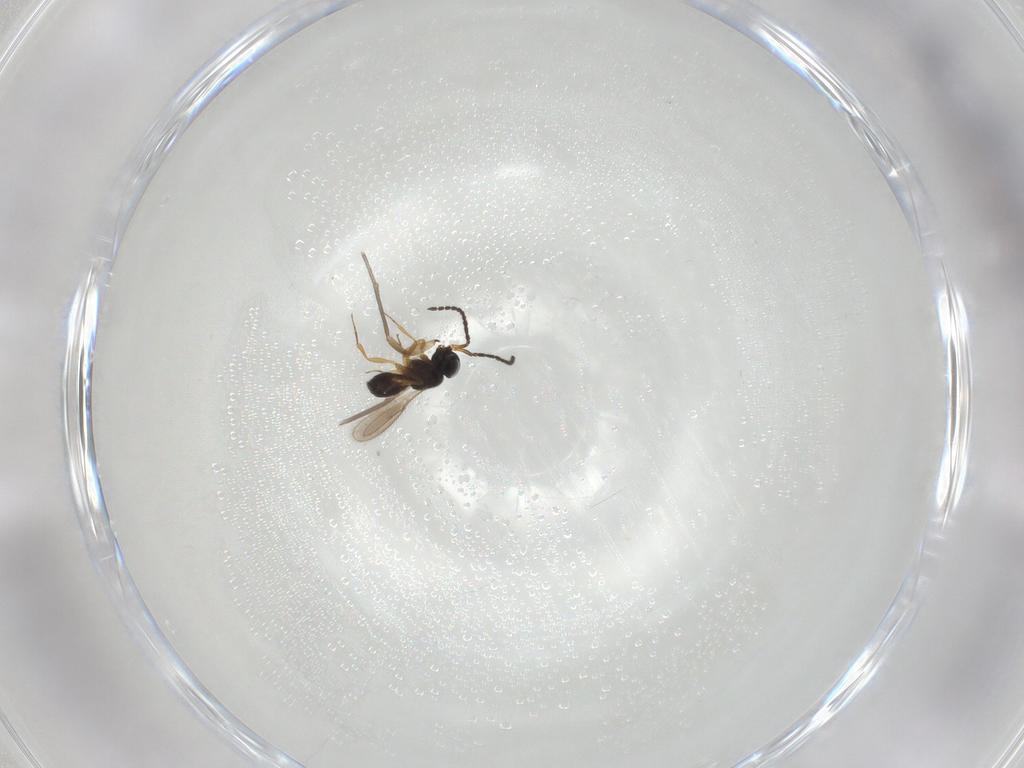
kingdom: Animalia
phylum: Arthropoda
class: Insecta
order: Hymenoptera
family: Scelionidae
